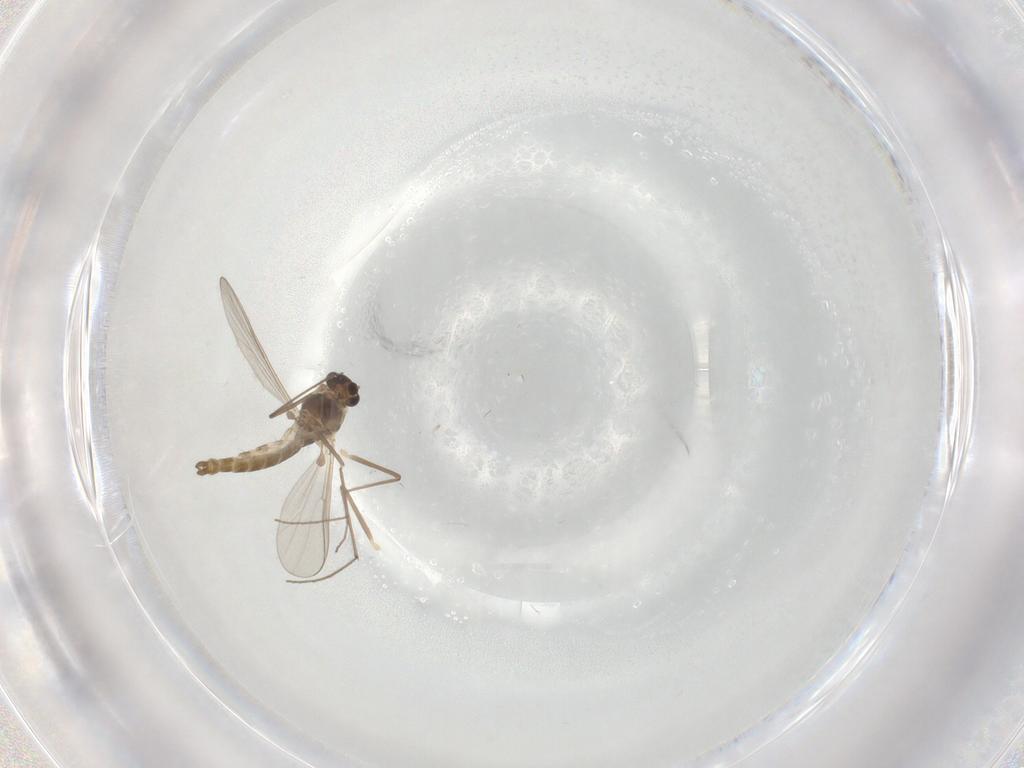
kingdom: Animalia
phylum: Arthropoda
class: Insecta
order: Diptera
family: Chironomidae
